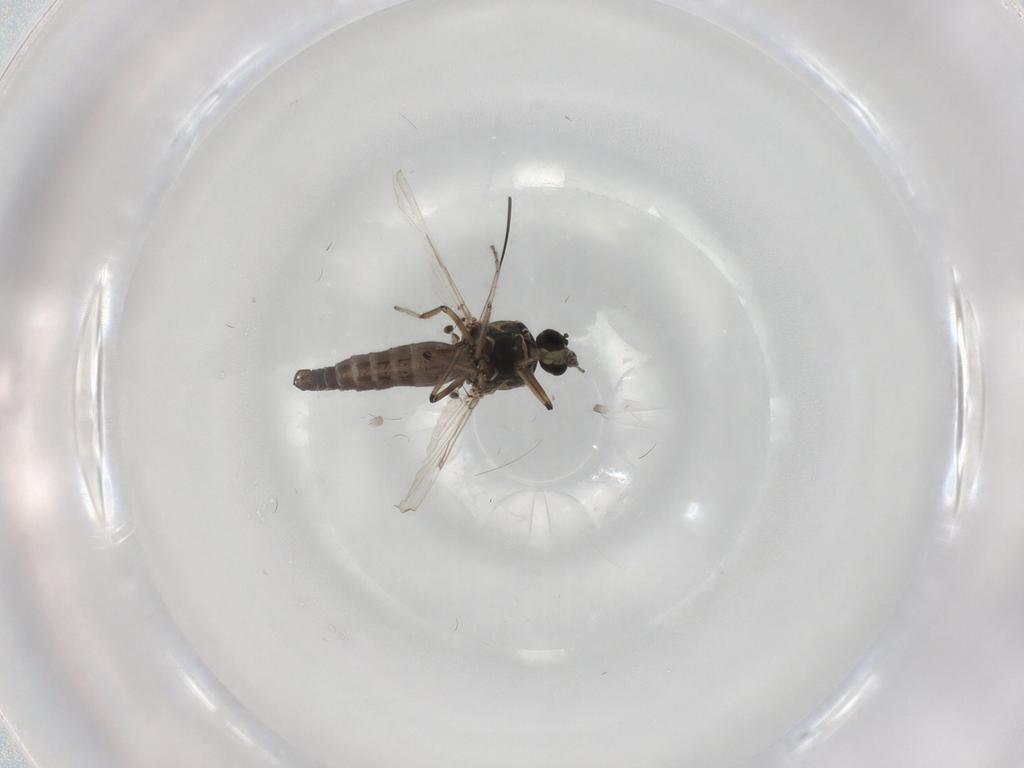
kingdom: Animalia
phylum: Arthropoda
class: Insecta
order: Diptera
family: Ceratopogonidae
